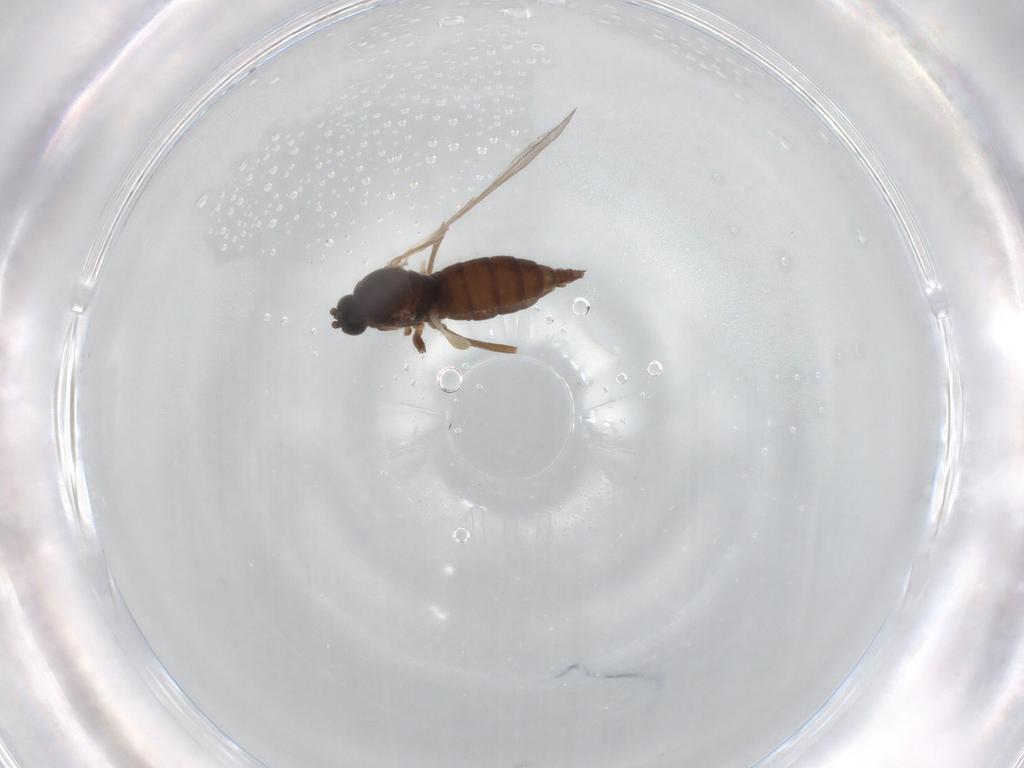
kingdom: Animalia
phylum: Arthropoda
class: Insecta
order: Diptera
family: Sciaridae
